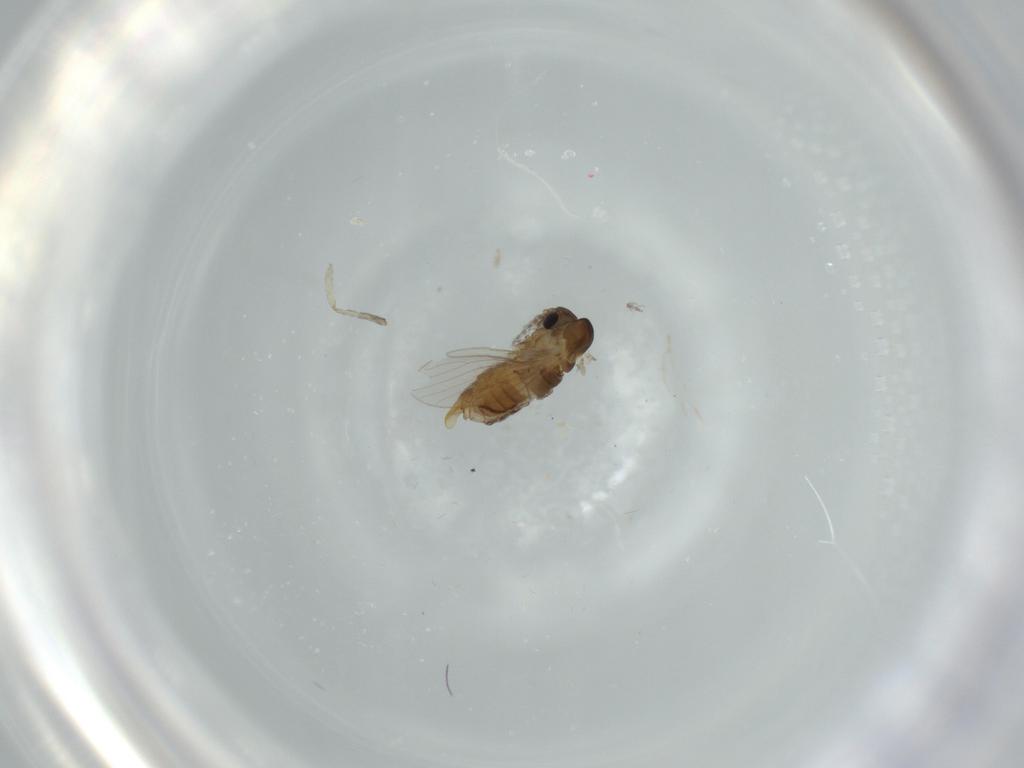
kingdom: Animalia
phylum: Arthropoda
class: Insecta
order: Diptera
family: Psychodidae
